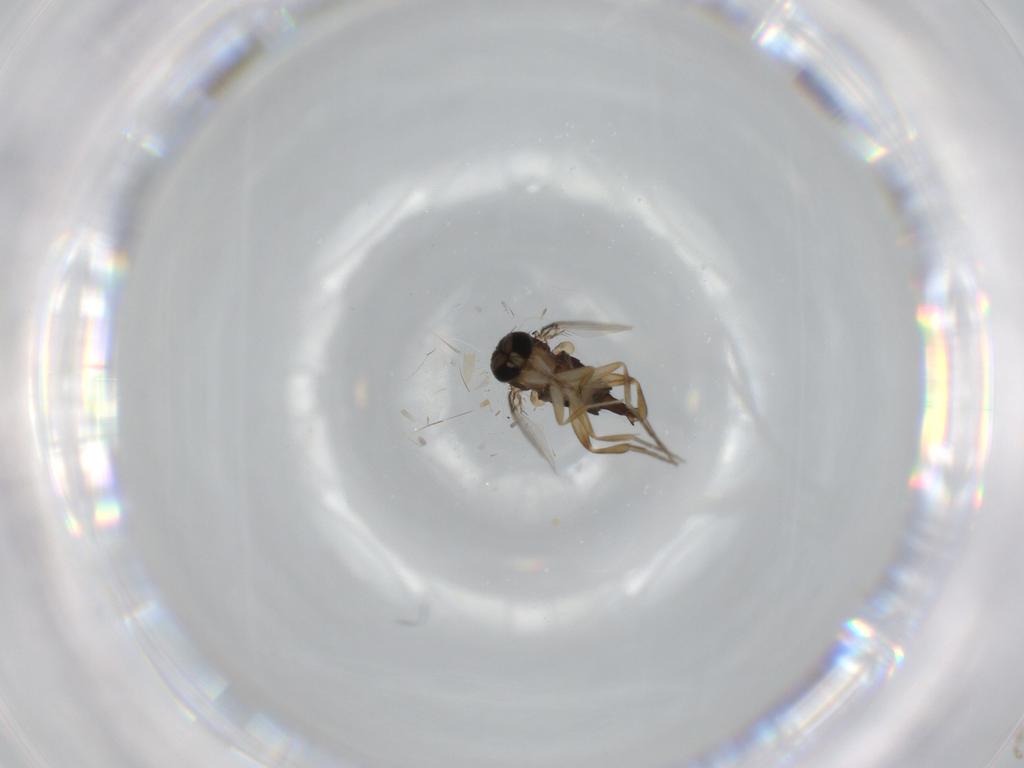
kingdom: Animalia
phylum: Arthropoda
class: Insecta
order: Diptera
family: Phoridae
